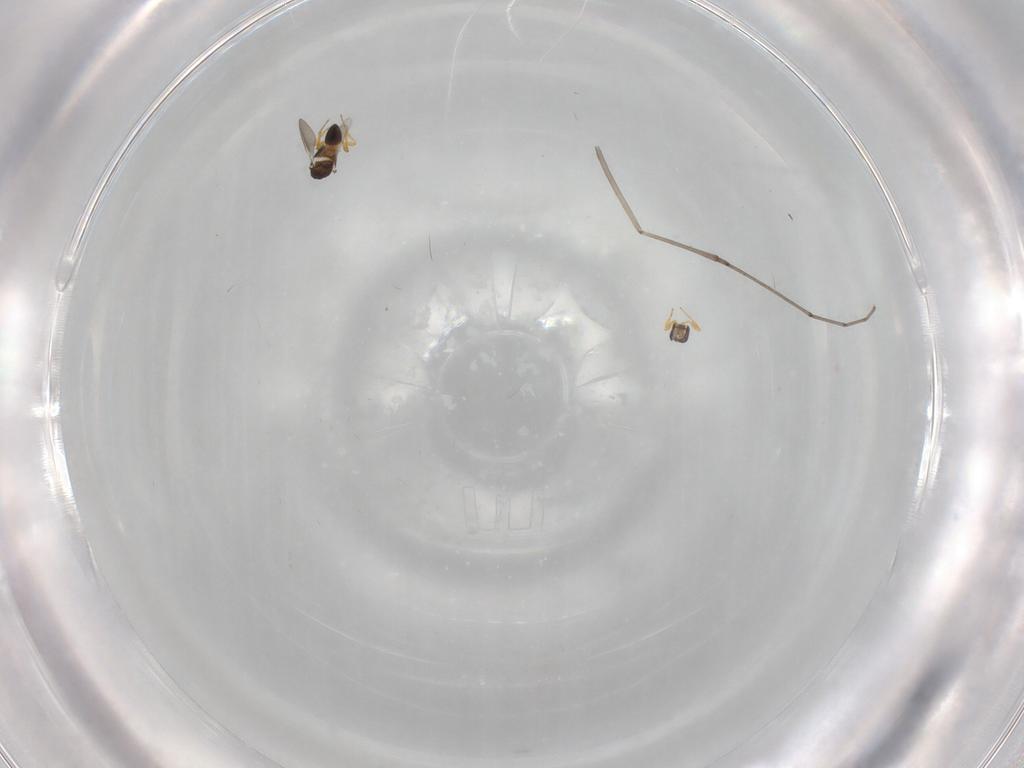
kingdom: Animalia
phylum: Arthropoda
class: Insecta
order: Hymenoptera
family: Platygastridae
